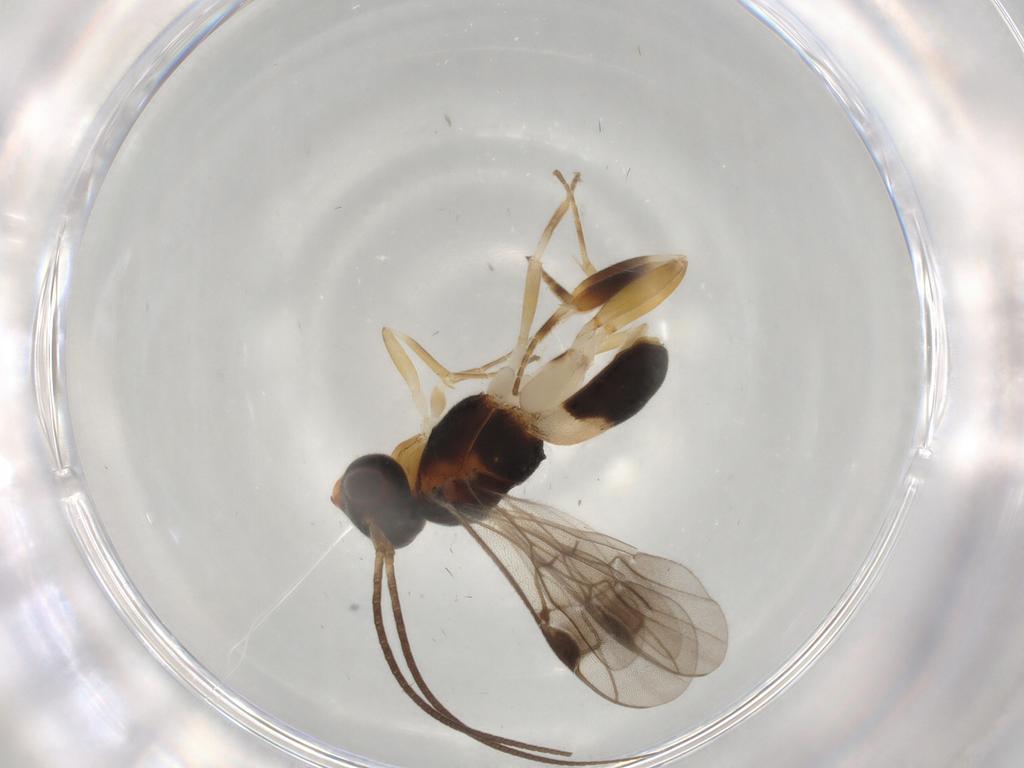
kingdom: Animalia
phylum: Arthropoda
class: Insecta
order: Hymenoptera
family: Braconidae
